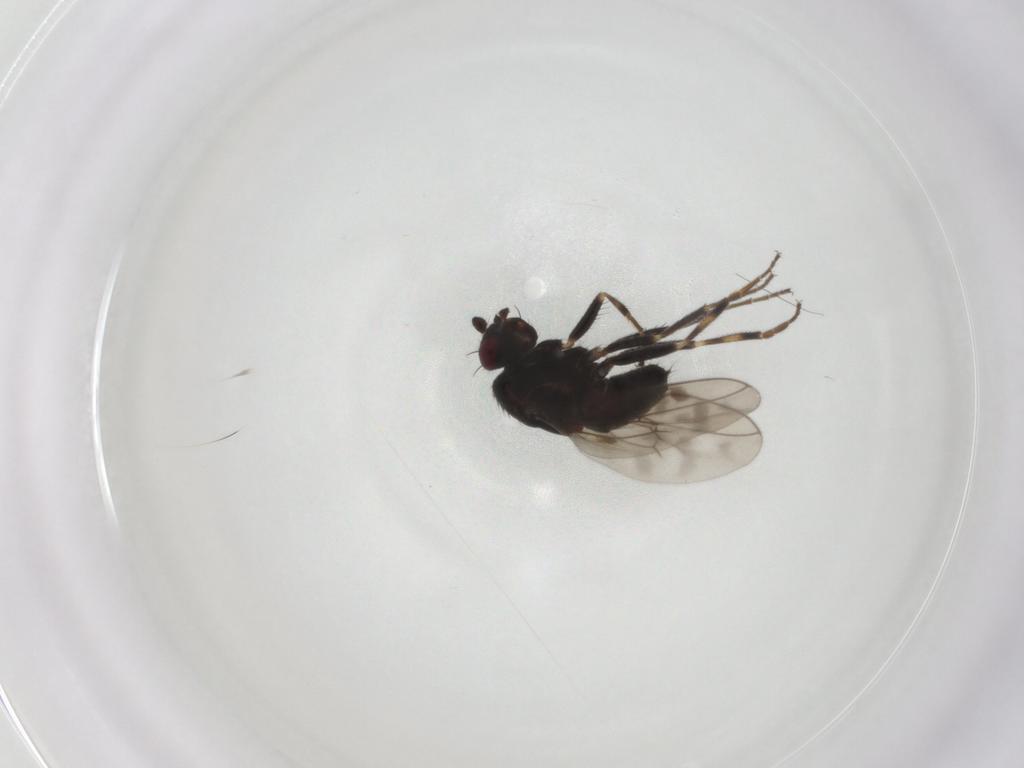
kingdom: Animalia
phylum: Arthropoda
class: Insecta
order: Diptera
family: Sphaeroceridae
